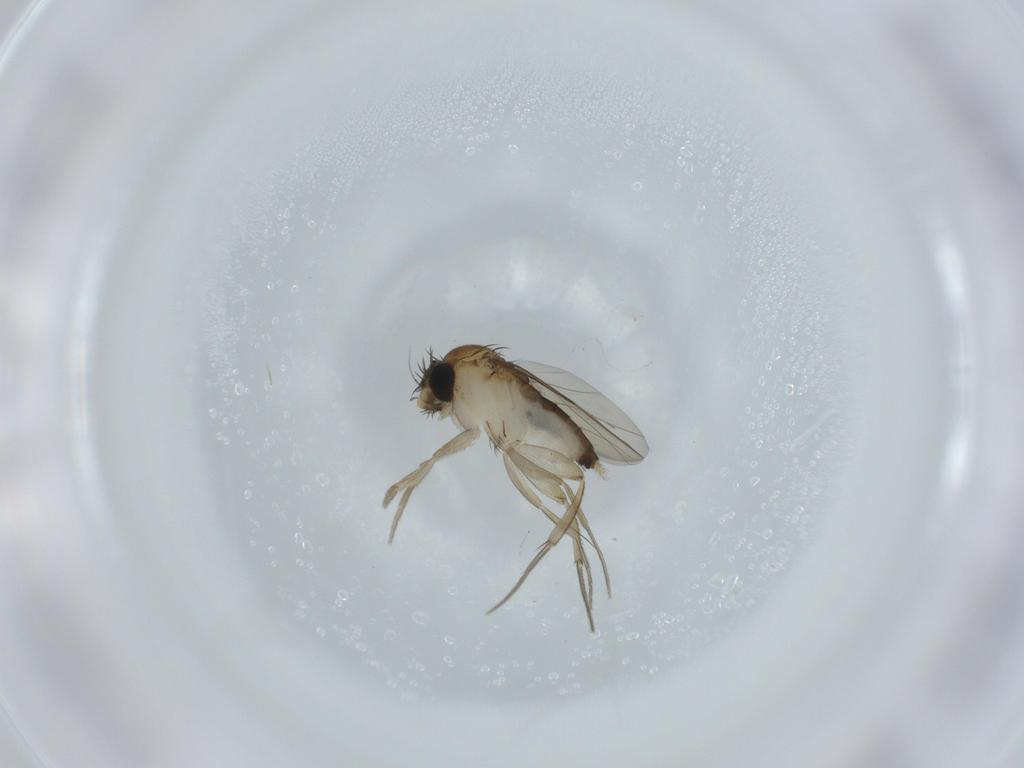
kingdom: Animalia
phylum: Arthropoda
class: Insecta
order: Diptera
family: Phoridae
